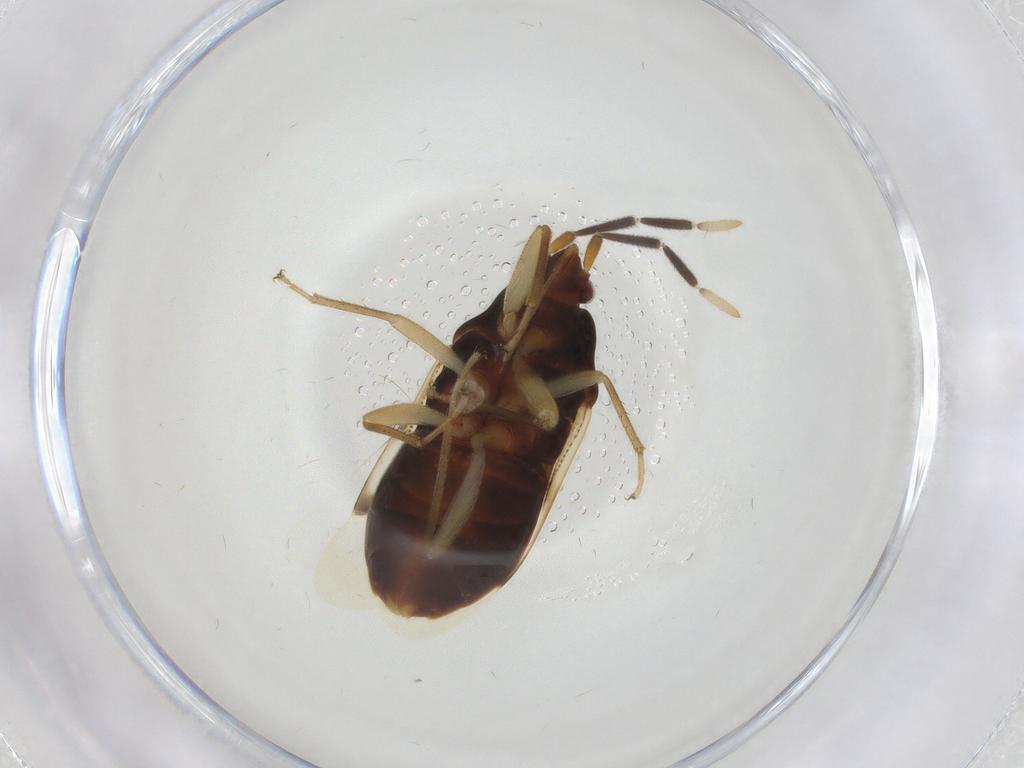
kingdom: Animalia
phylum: Arthropoda
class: Insecta
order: Hemiptera
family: Rhyparochromidae
